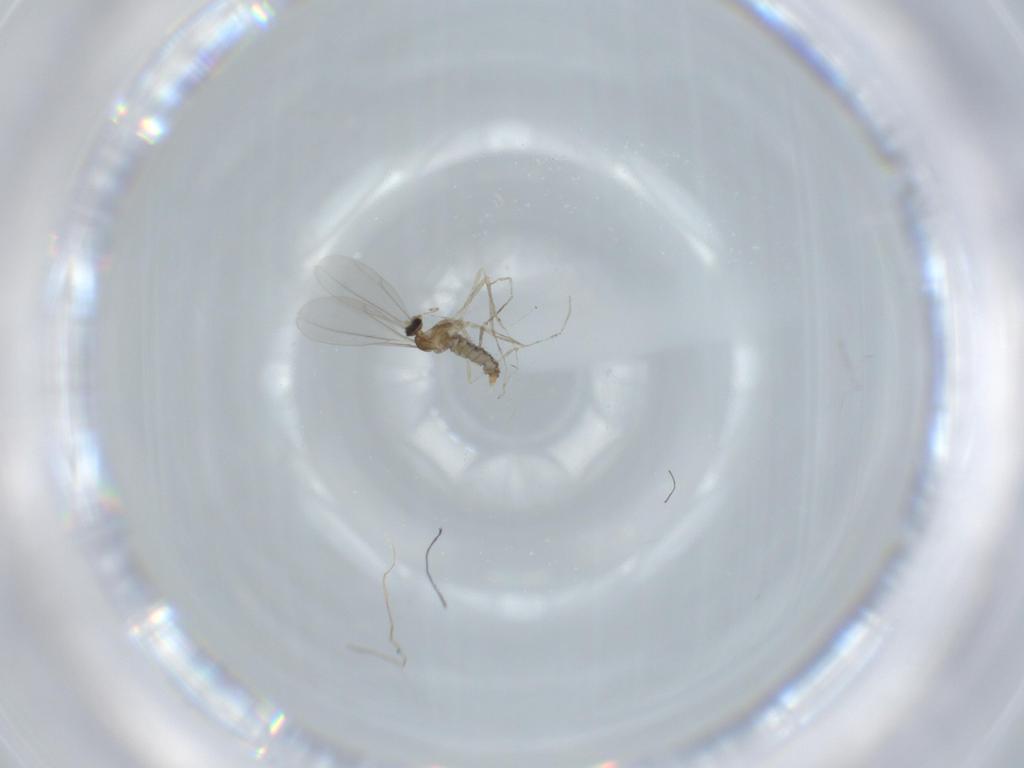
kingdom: Animalia
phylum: Arthropoda
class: Insecta
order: Diptera
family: Cecidomyiidae
